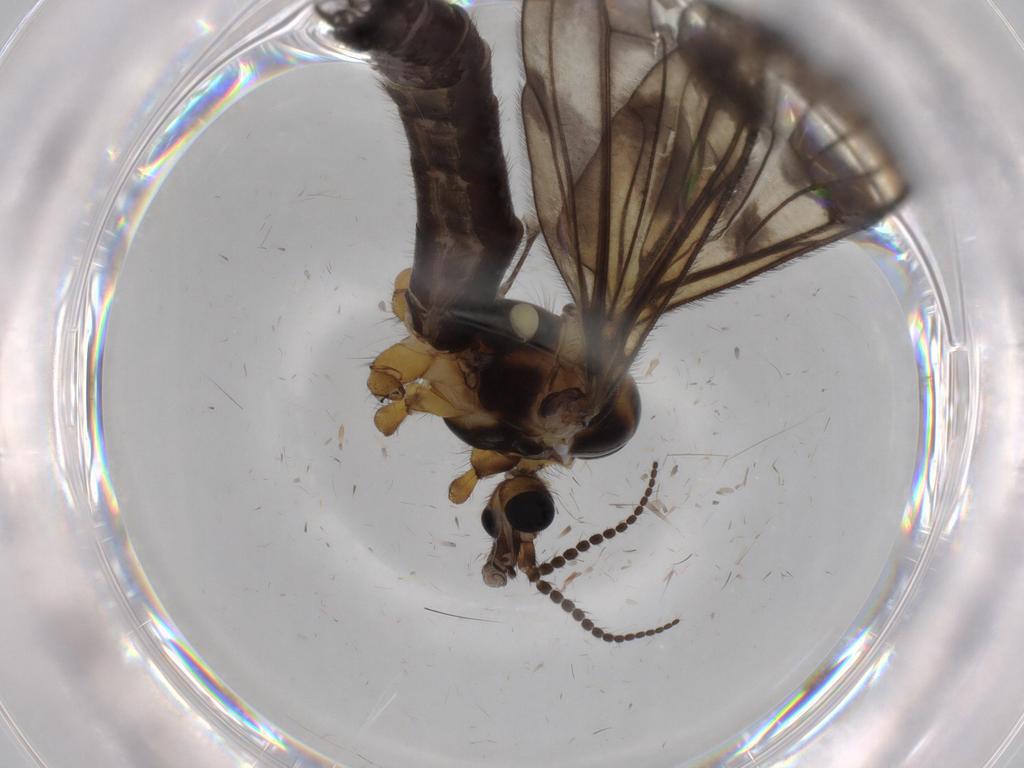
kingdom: Animalia
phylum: Arthropoda
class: Insecta
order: Diptera
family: Limoniidae
